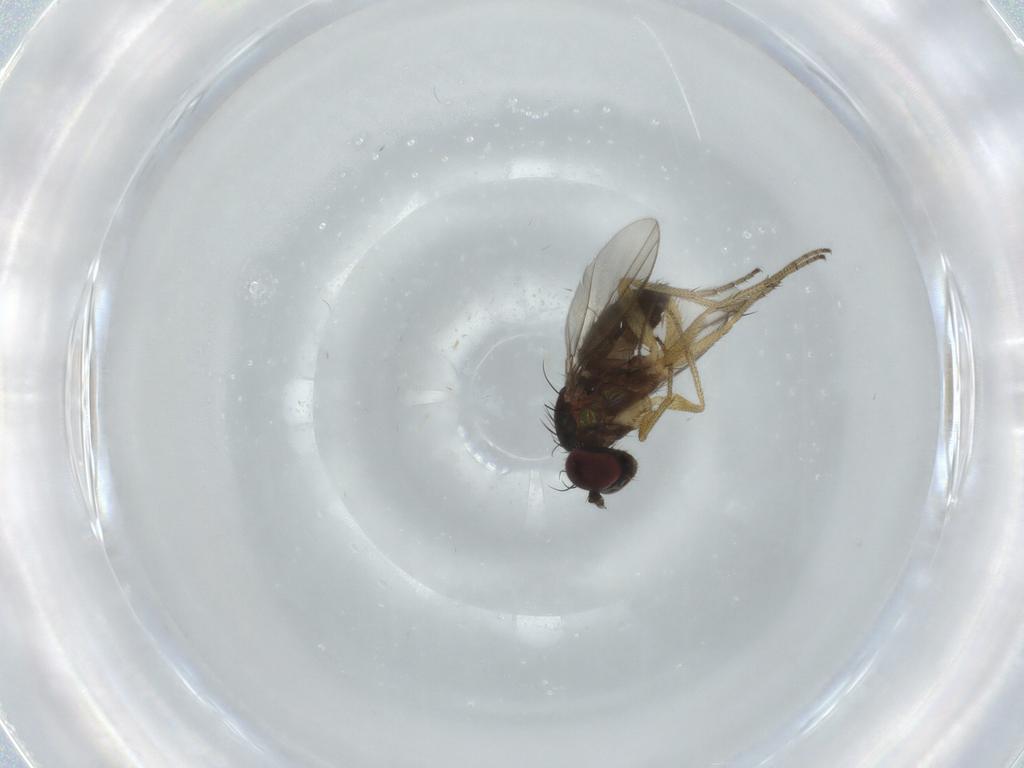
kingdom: Animalia
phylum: Arthropoda
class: Insecta
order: Diptera
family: Dolichopodidae
